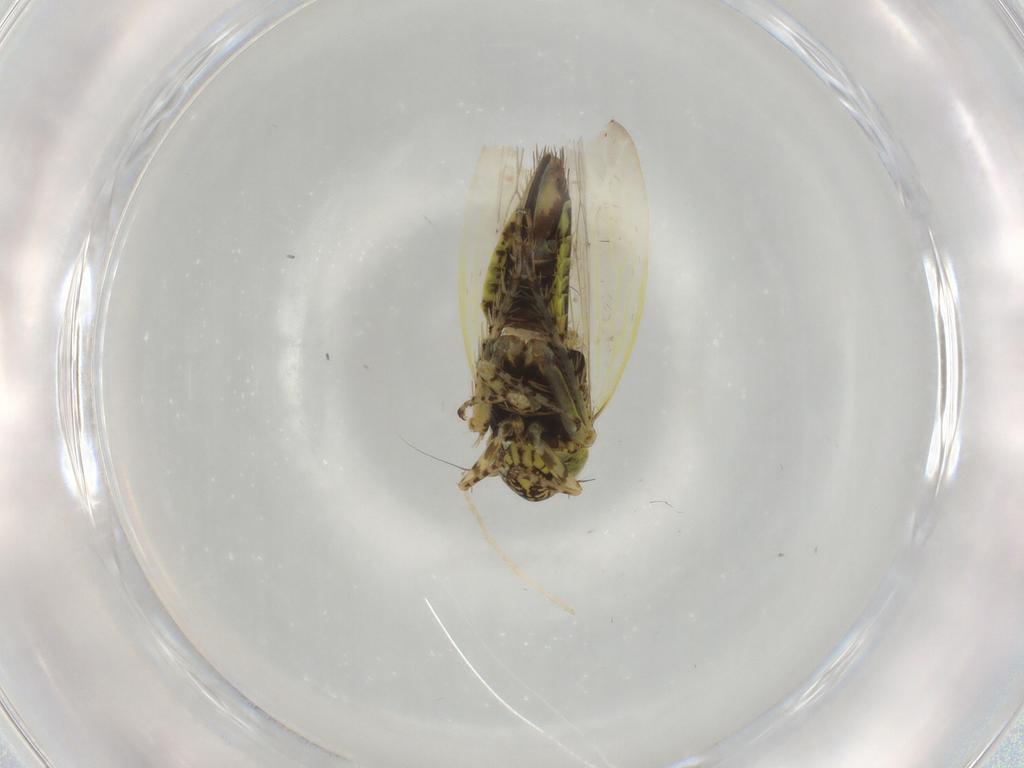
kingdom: Animalia
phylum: Arthropoda
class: Insecta
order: Hemiptera
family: Cicadellidae
